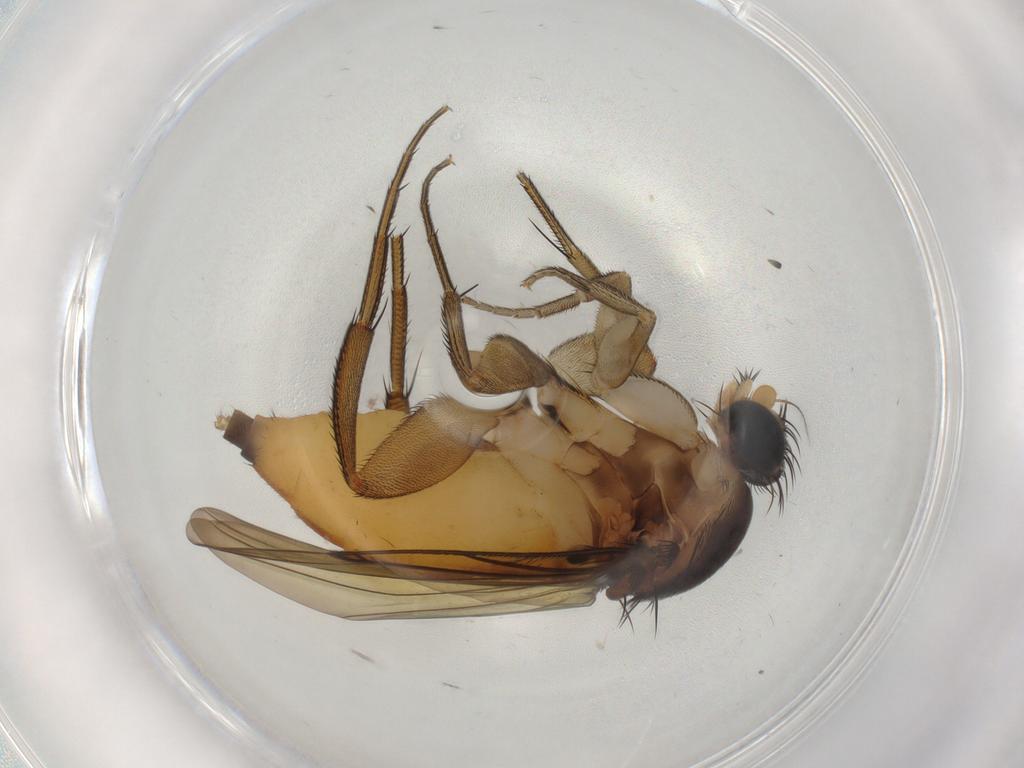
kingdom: Animalia
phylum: Arthropoda
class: Insecta
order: Diptera
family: Phoridae
